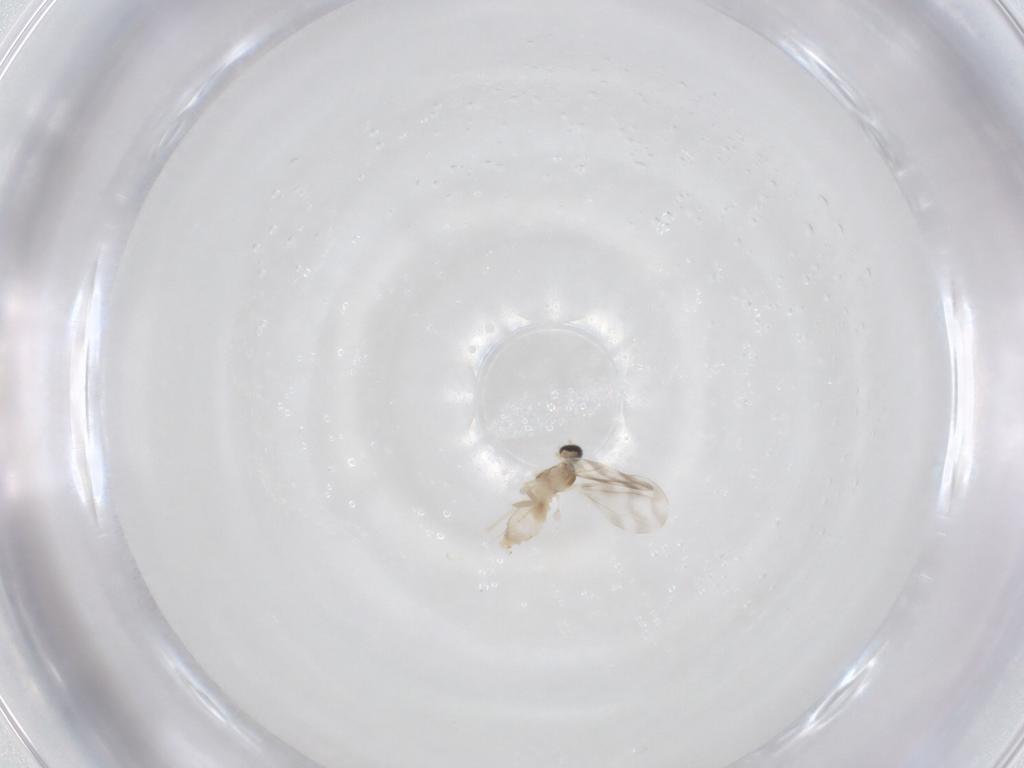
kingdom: Animalia
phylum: Arthropoda
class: Insecta
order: Diptera
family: Cecidomyiidae
